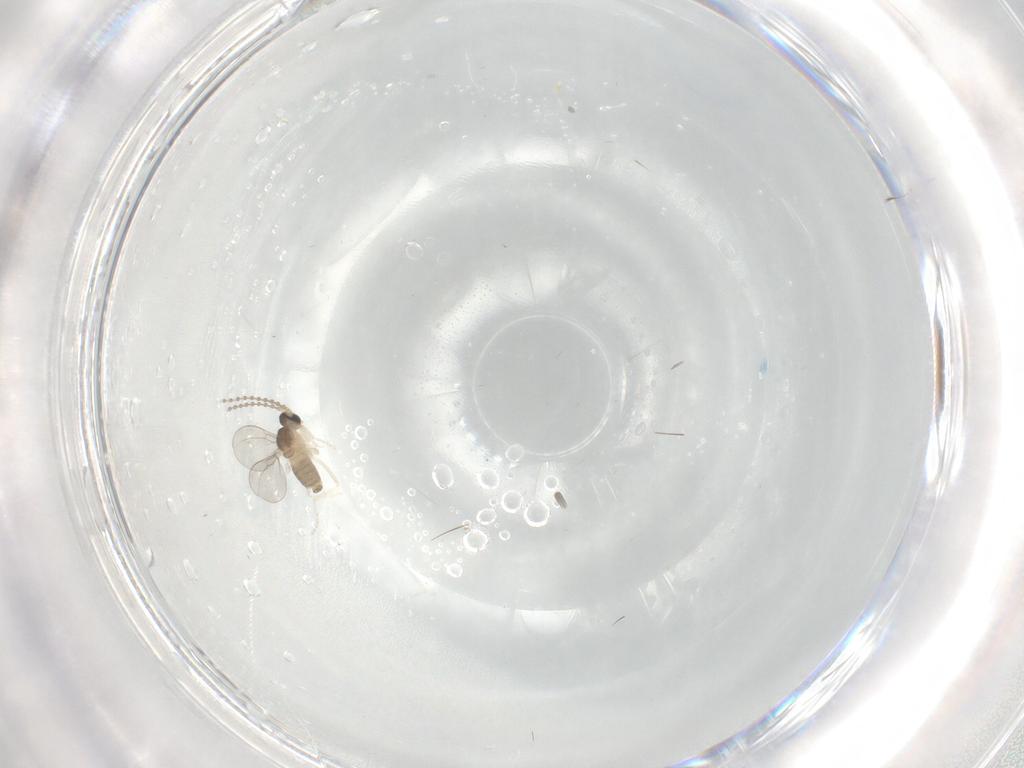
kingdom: Animalia
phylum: Arthropoda
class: Insecta
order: Diptera
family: Cecidomyiidae
